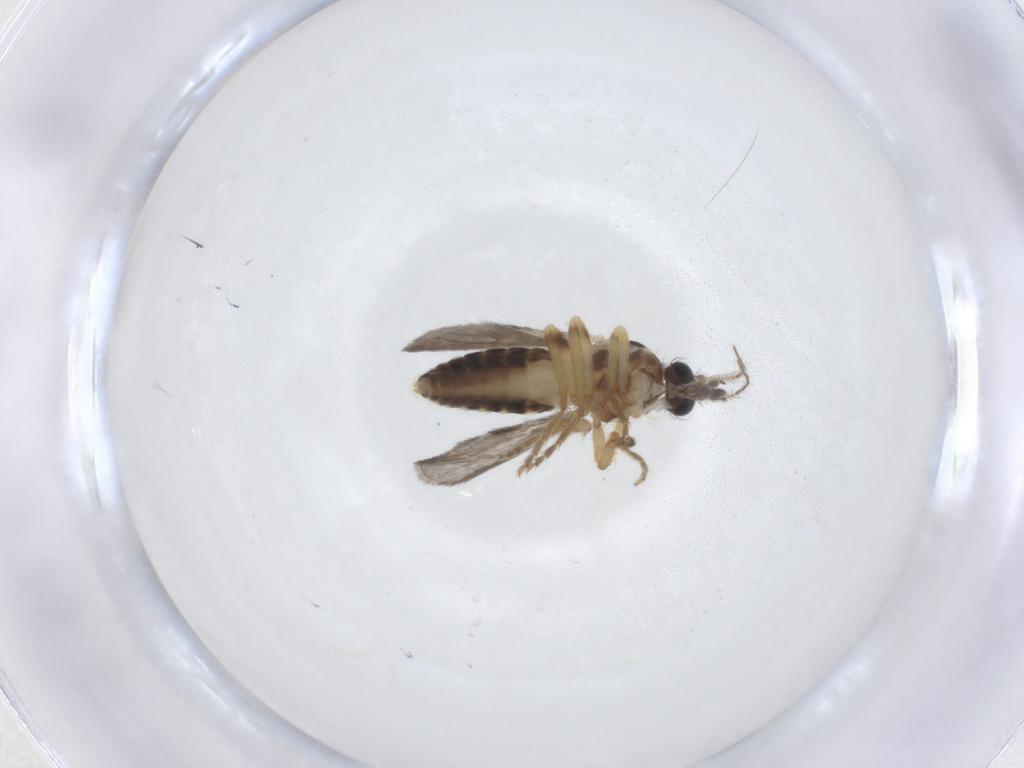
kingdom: Animalia
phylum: Arthropoda
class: Insecta
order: Diptera
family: Ceratopogonidae
